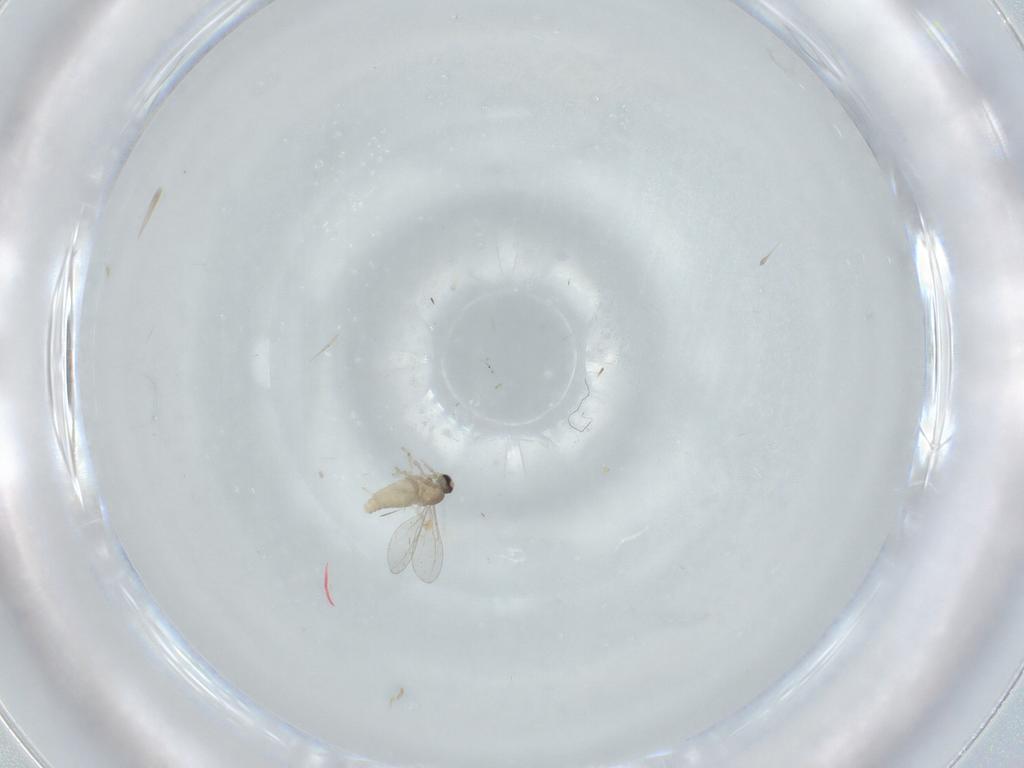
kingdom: Animalia
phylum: Arthropoda
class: Insecta
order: Diptera
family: Cecidomyiidae
